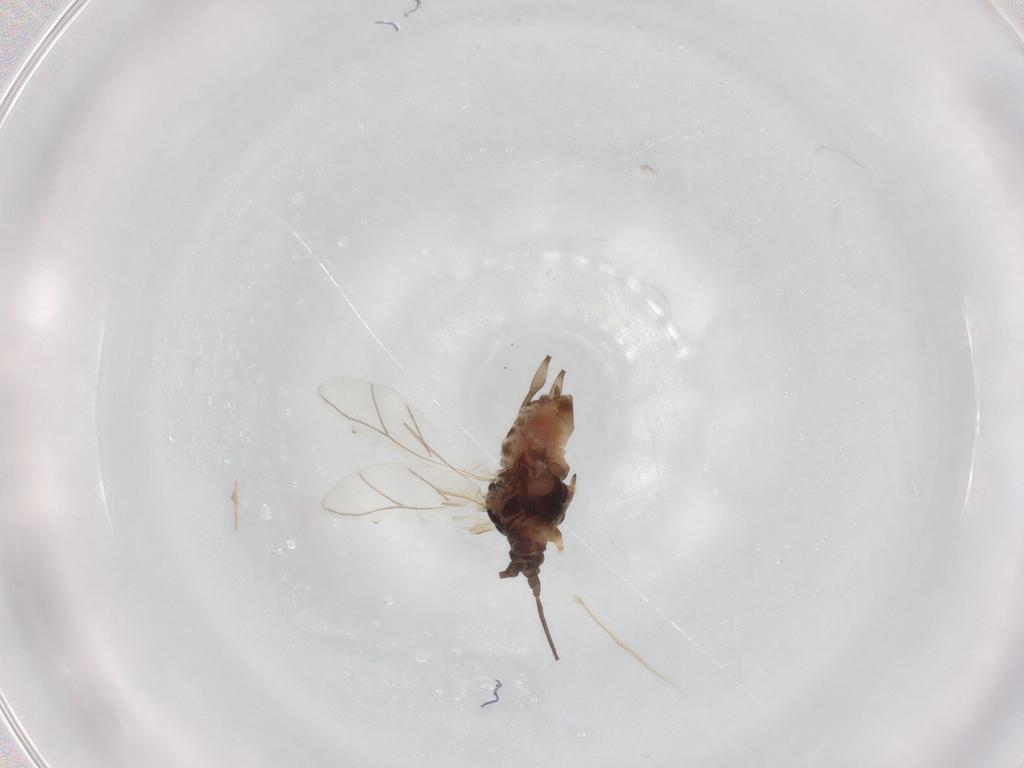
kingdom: Animalia
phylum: Arthropoda
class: Insecta
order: Hemiptera
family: Aphididae
